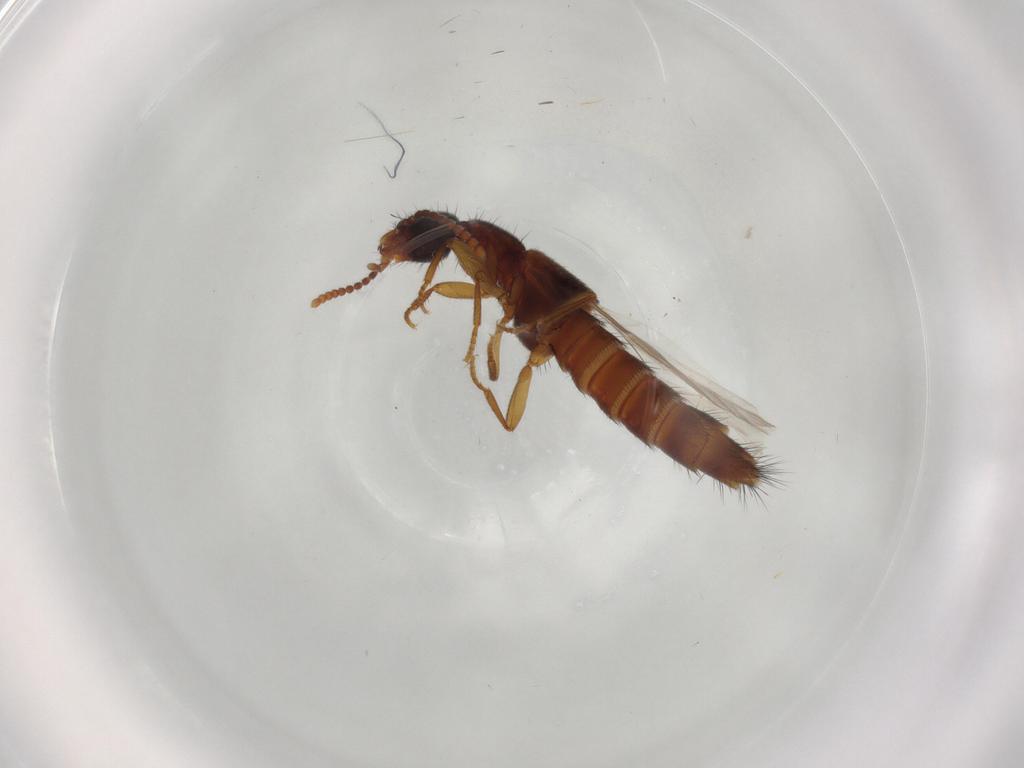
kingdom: Animalia
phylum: Arthropoda
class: Insecta
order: Coleoptera
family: Staphylinidae
